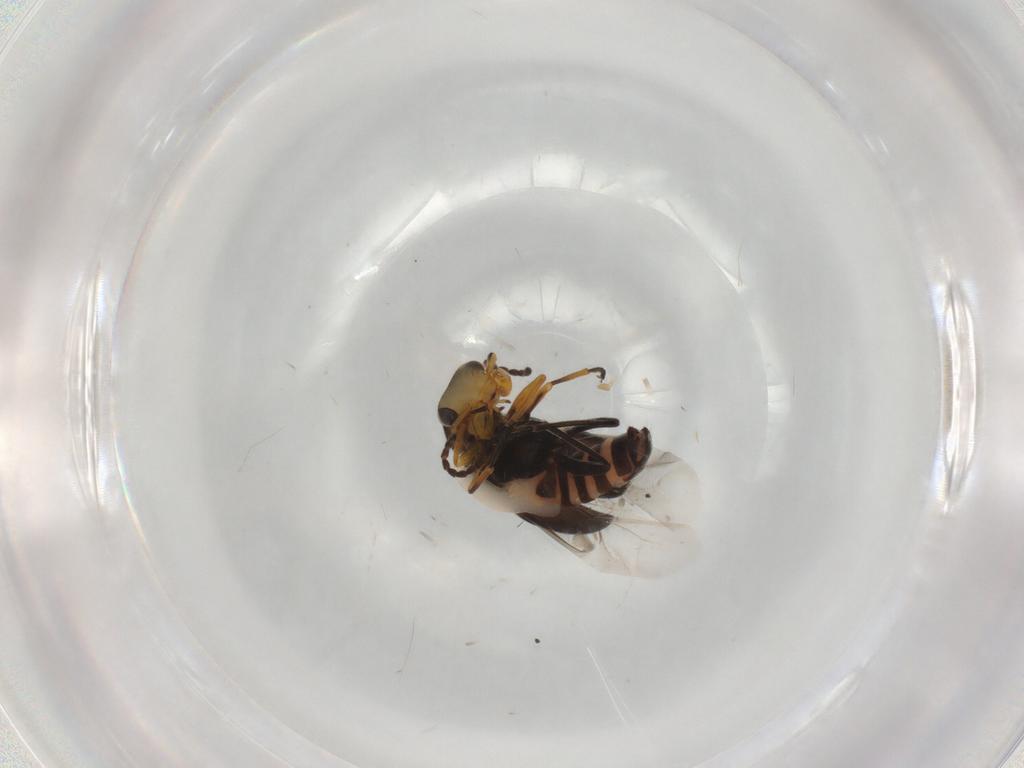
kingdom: Animalia
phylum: Arthropoda
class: Insecta
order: Coleoptera
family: Melyridae
